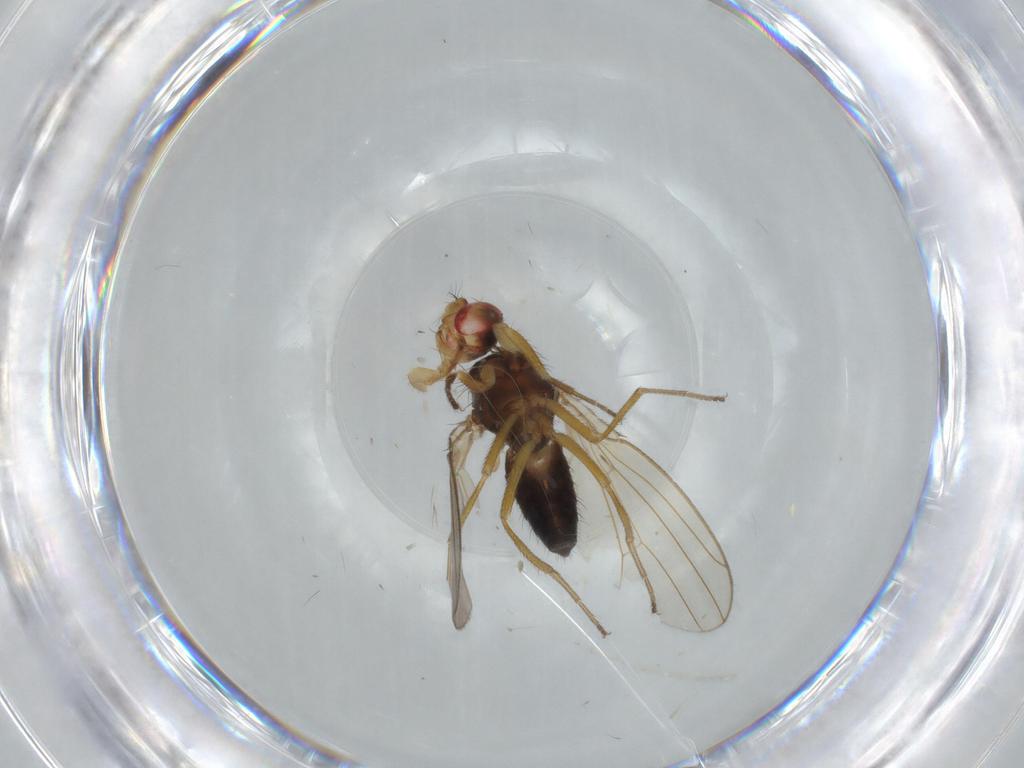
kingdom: Animalia
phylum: Arthropoda
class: Insecta
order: Diptera
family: Drosophilidae
